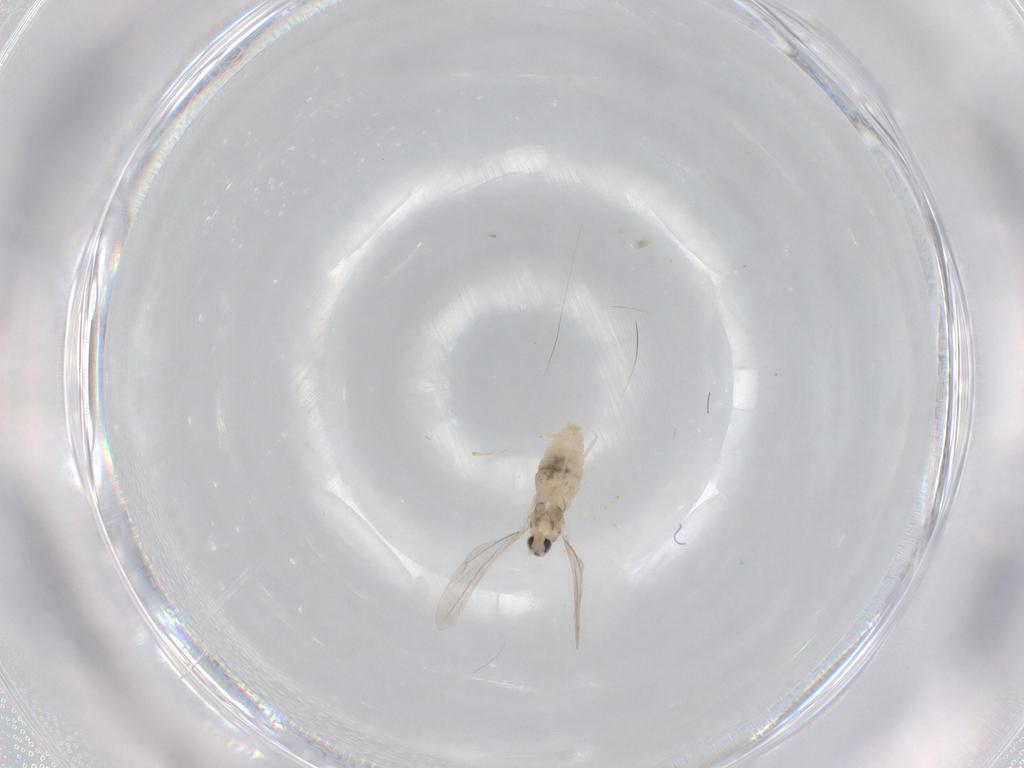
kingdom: Animalia
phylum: Arthropoda
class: Insecta
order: Diptera
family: Cecidomyiidae
